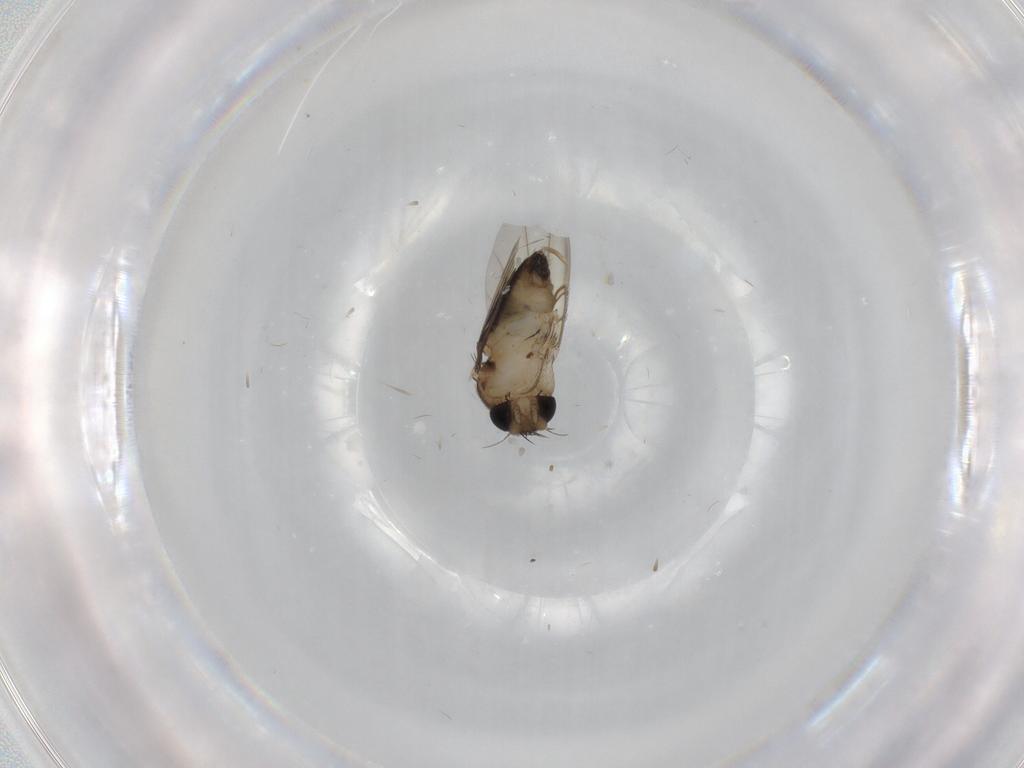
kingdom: Animalia
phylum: Arthropoda
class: Insecta
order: Diptera
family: Phoridae
